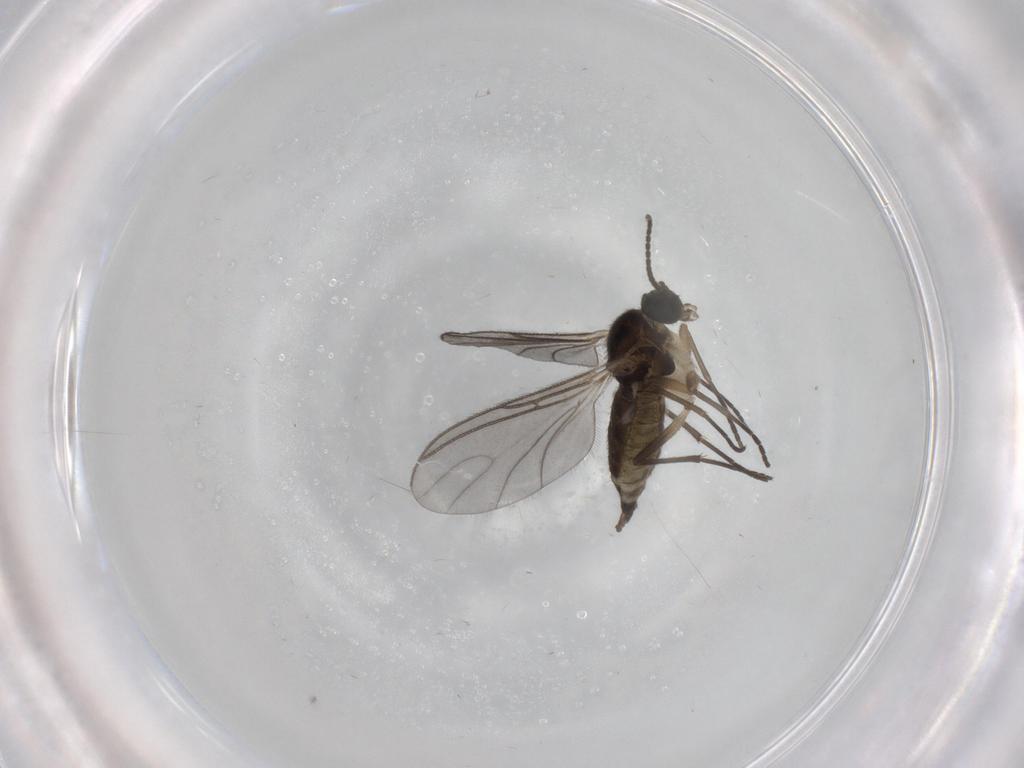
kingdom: Animalia
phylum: Arthropoda
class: Insecta
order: Diptera
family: Sciaridae
